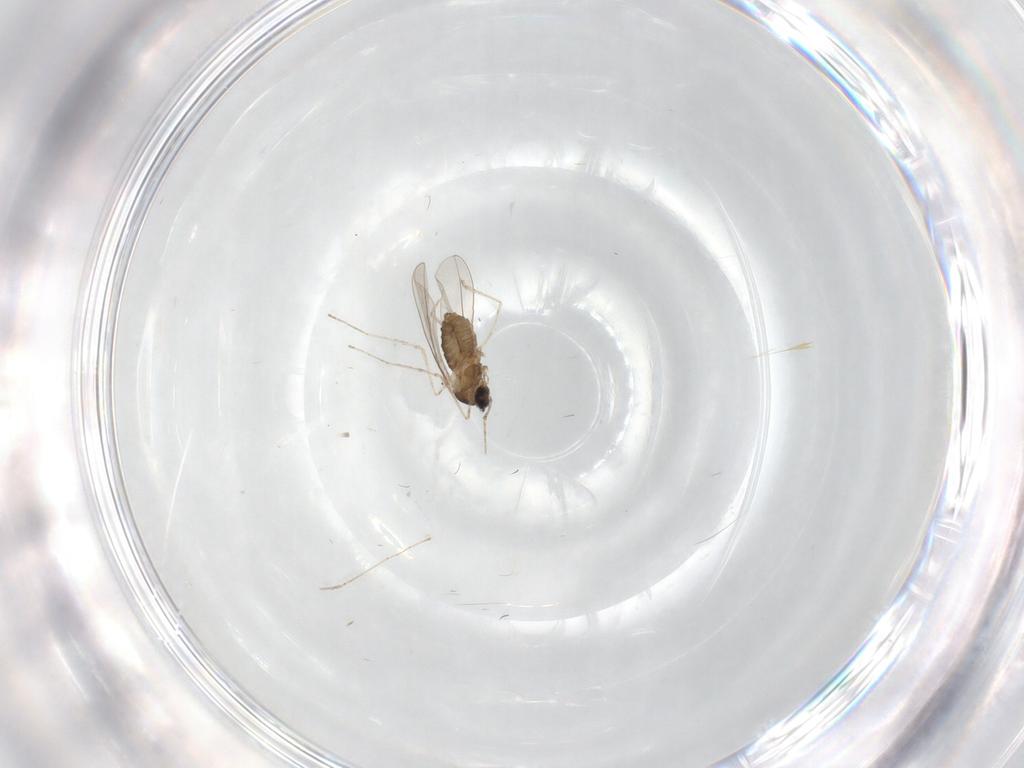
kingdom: Animalia
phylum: Arthropoda
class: Insecta
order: Diptera
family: Cecidomyiidae
